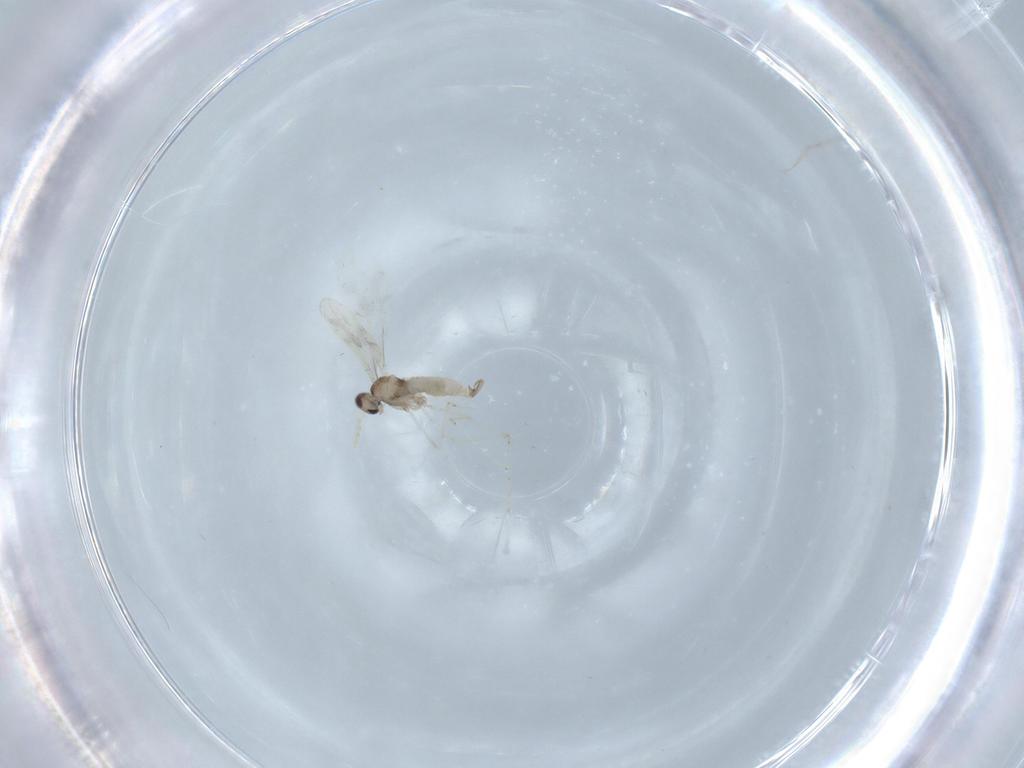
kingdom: Animalia
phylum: Arthropoda
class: Insecta
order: Diptera
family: Cecidomyiidae
